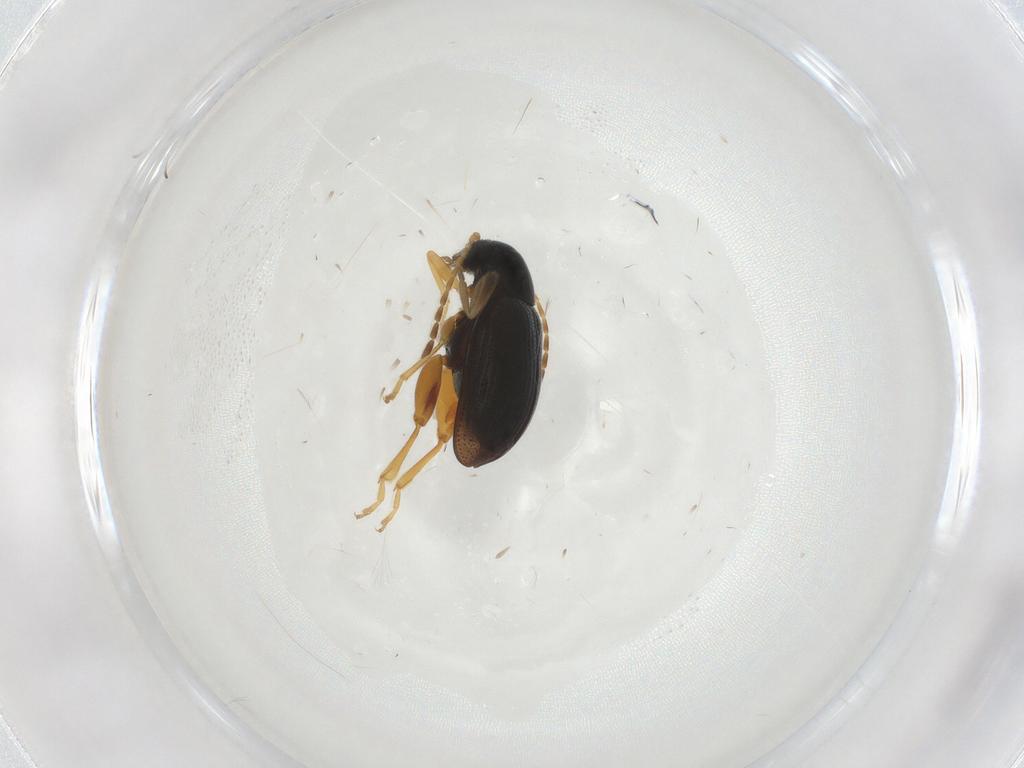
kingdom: Animalia
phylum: Arthropoda
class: Insecta
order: Coleoptera
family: Chrysomelidae
